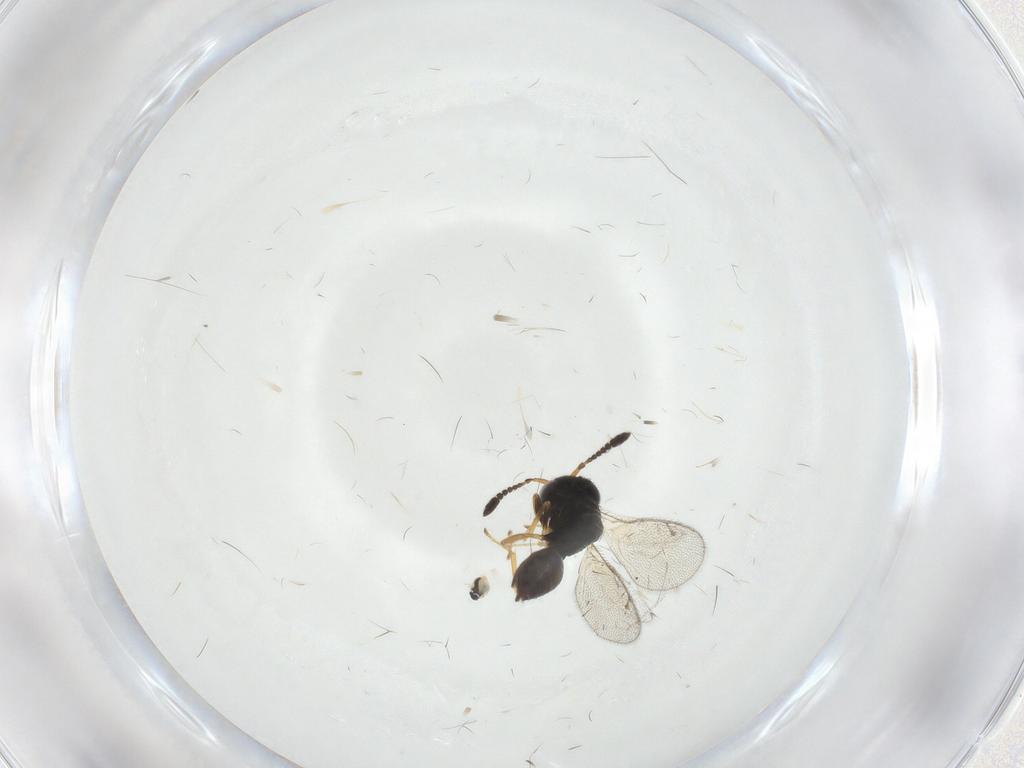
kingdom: Animalia
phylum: Arthropoda
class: Insecta
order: Hymenoptera
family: Pteromalidae
